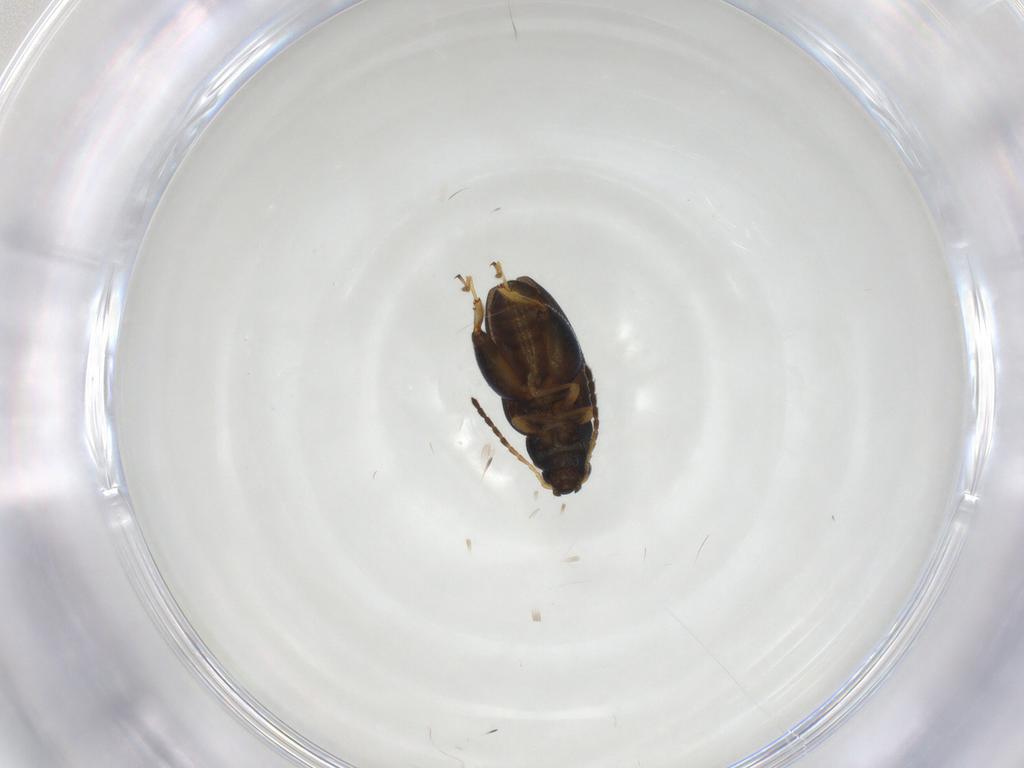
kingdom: Animalia
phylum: Arthropoda
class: Insecta
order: Coleoptera
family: Chrysomelidae
